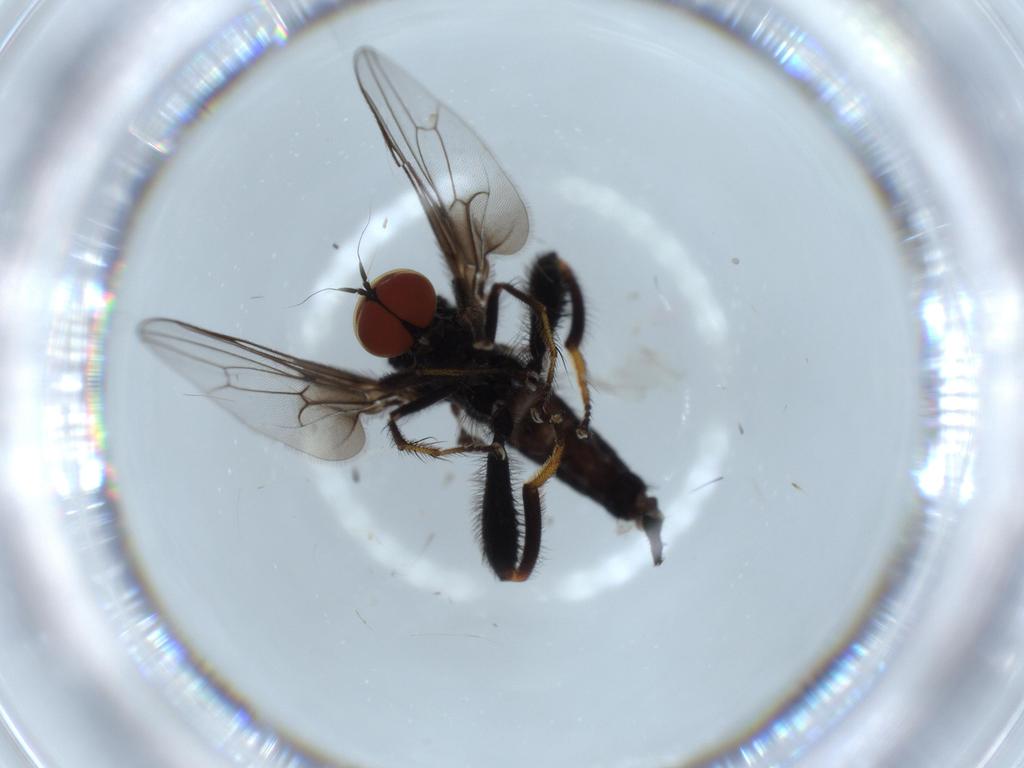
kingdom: Animalia
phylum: Arthropoda
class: Insecta
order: Diptera
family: Hybotidae
